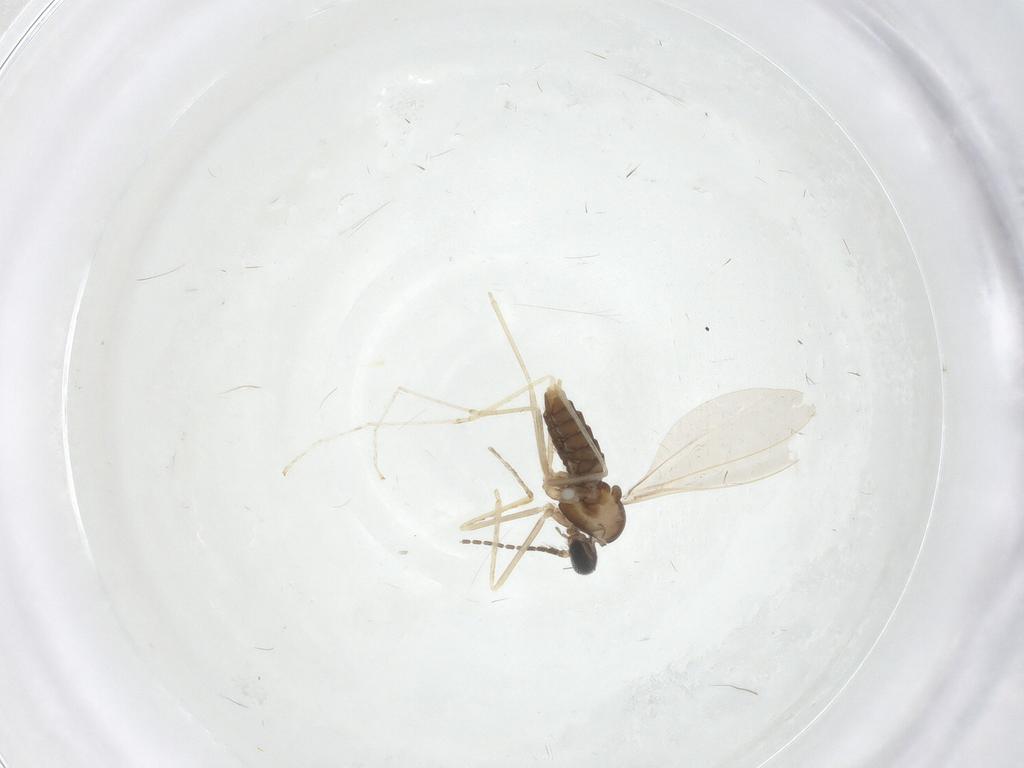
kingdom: Animalia
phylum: Arthropoda
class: Insecta
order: Diptera
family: Cecidomyiidae
